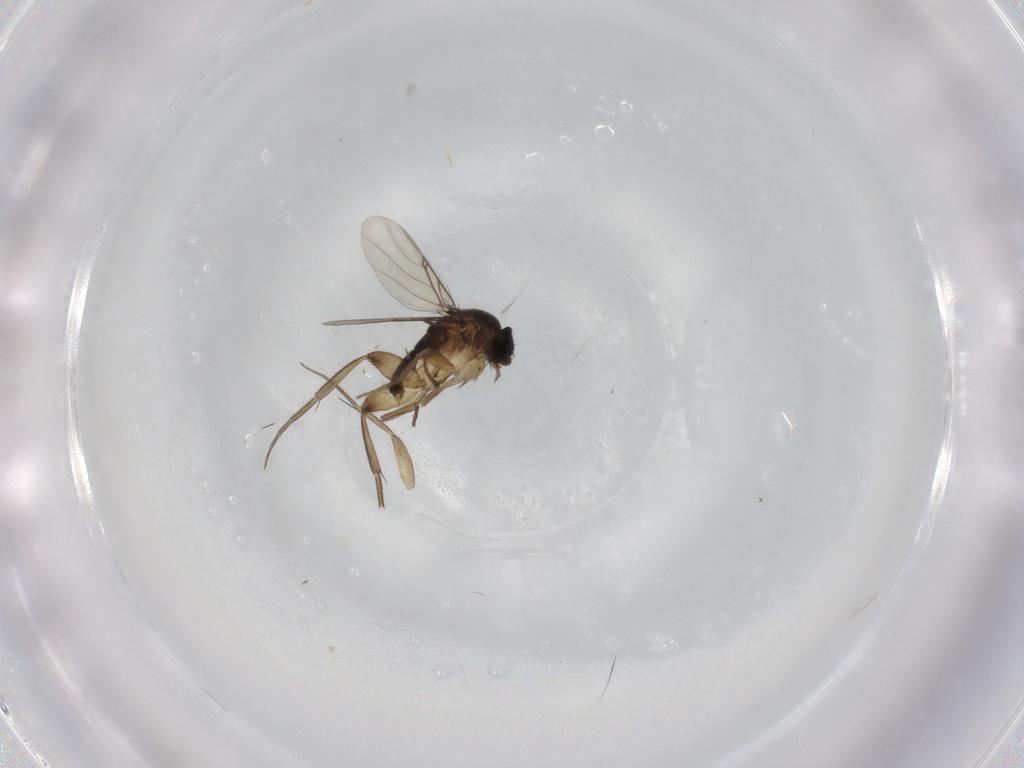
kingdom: Animalia
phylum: Arthropoda
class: Insecta
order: Diptera
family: Phoridae
